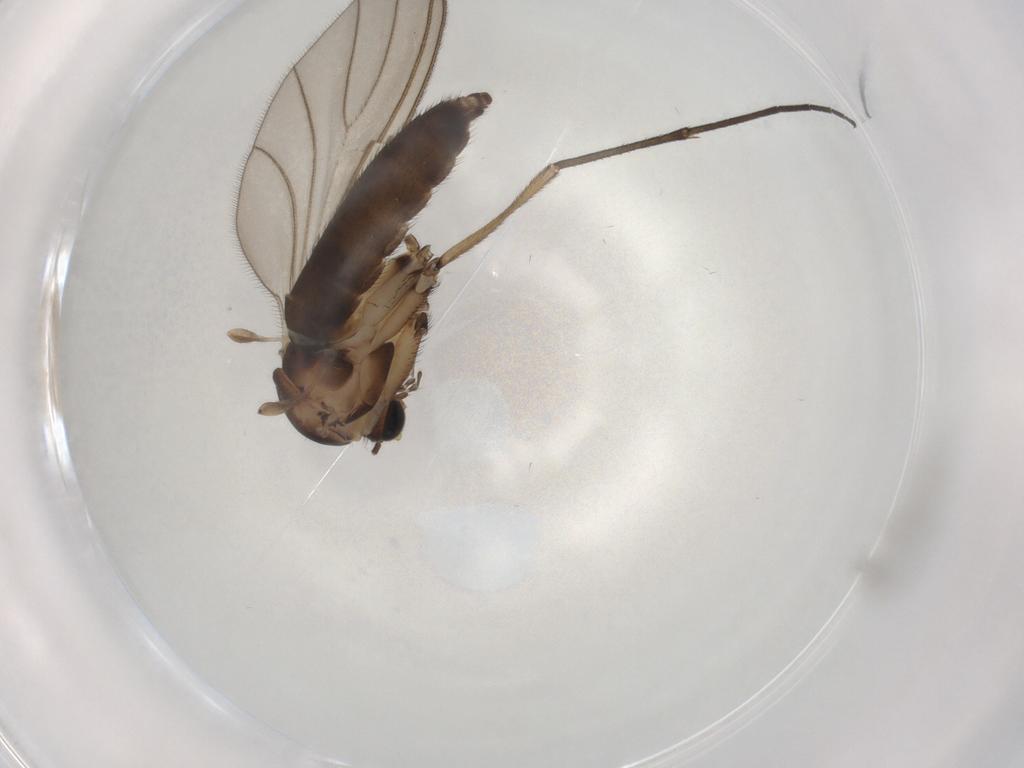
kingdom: Animalia
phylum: Arthropoda
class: Insecta
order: Diptera
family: Sciaridae
